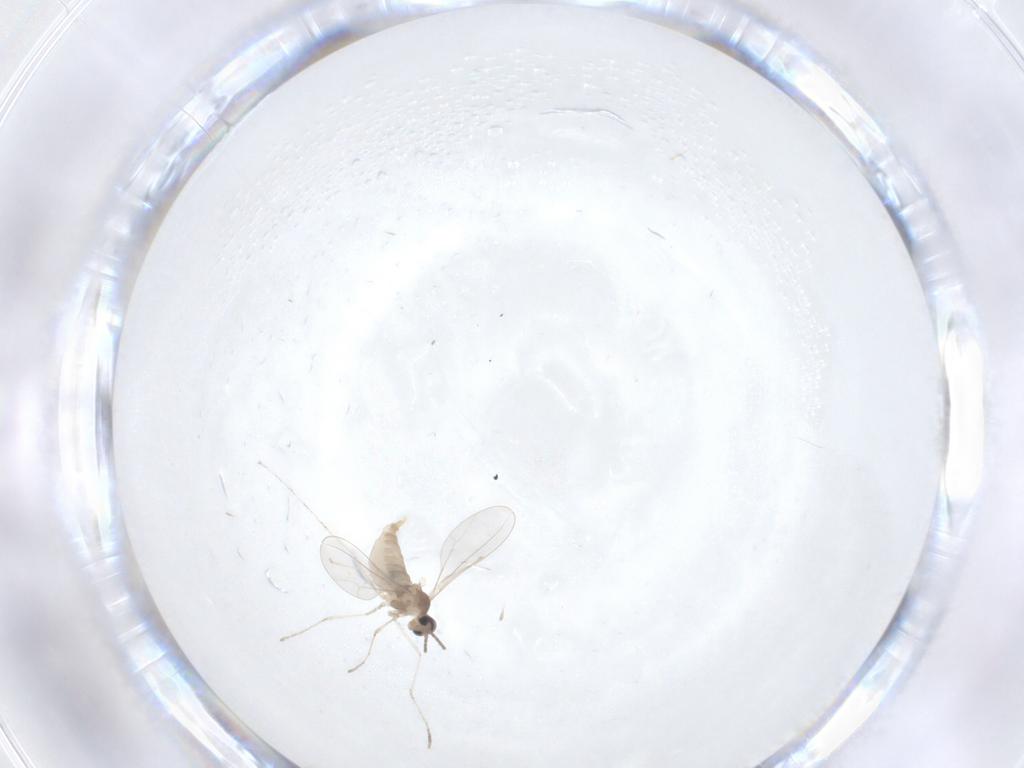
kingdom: Animalia
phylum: Arthropoda
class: Insecta
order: Diptera
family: Cecidomyiidae
